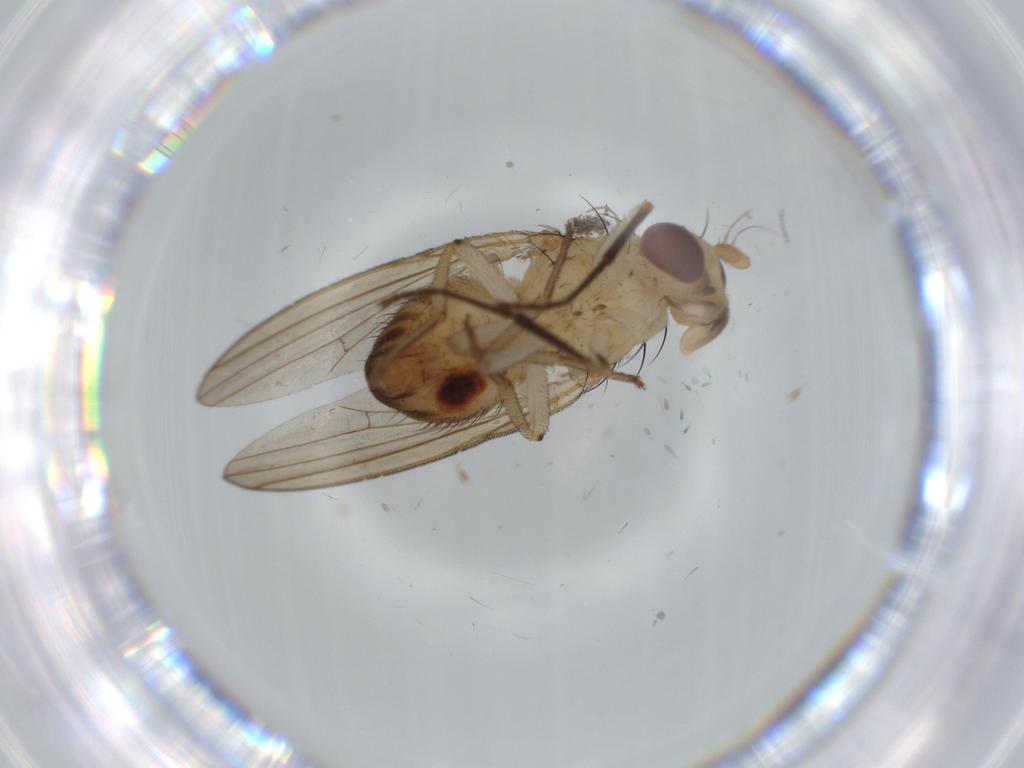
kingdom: Animalia
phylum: Arthropoda
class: Insecta
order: Diptera
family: Lauxaniidae
